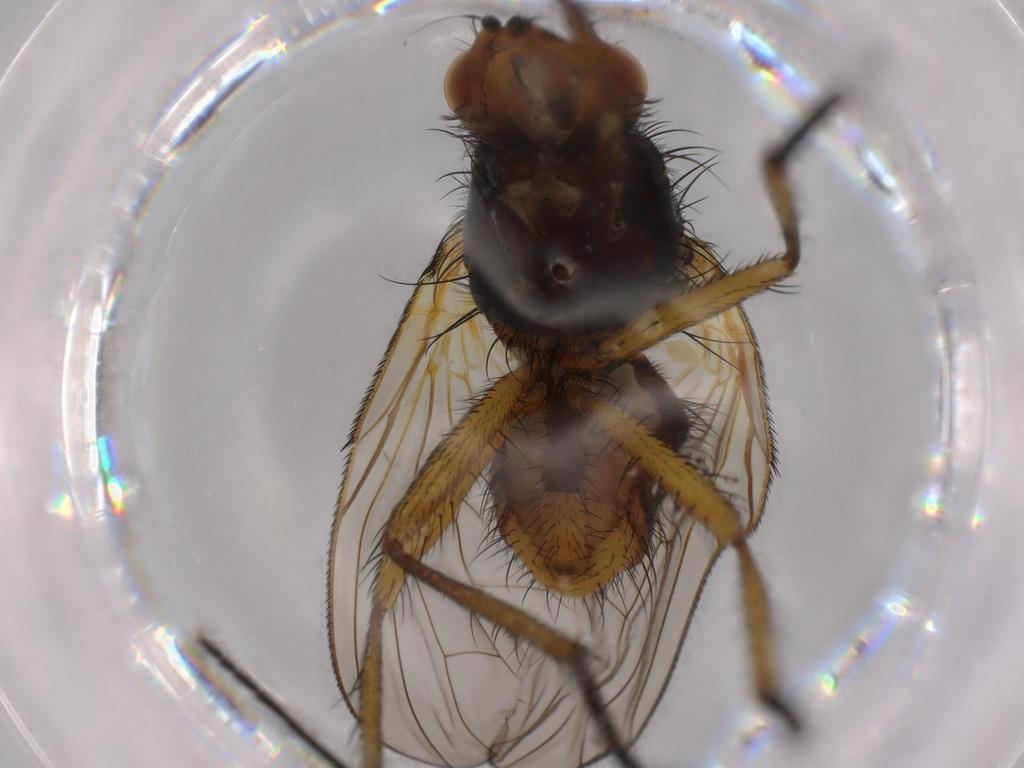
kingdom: Animalia
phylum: Arthropoda
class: Insecta
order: Diptera
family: Anthomyiidae
